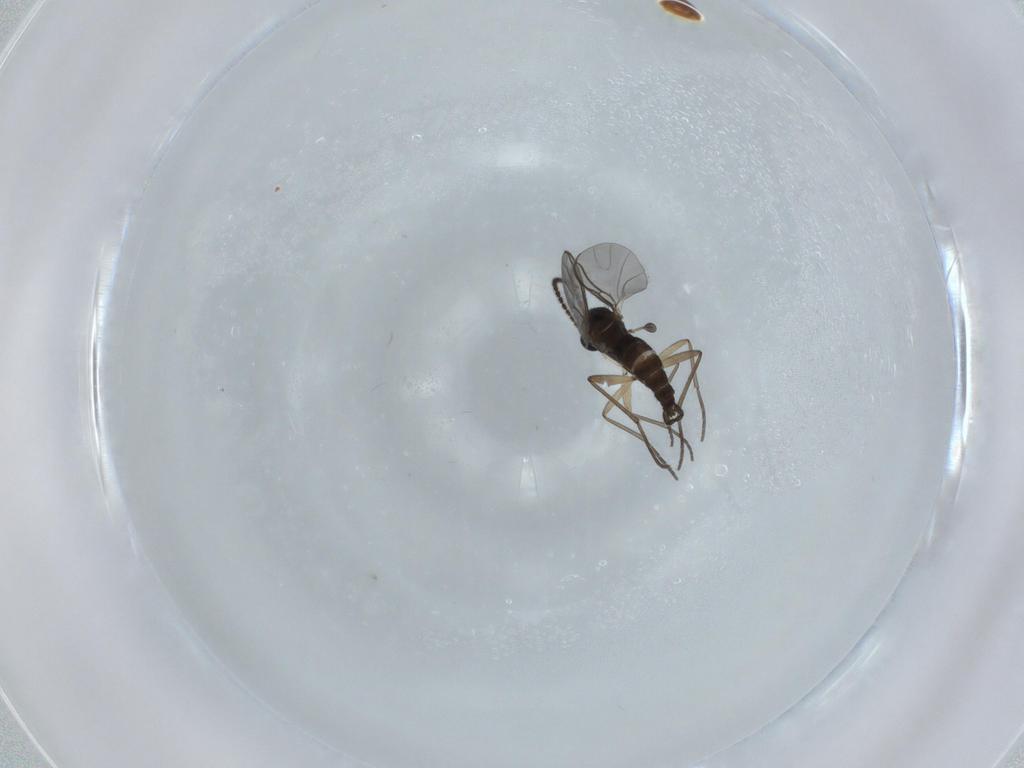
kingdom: Animalia
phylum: Arthropoda
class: Insecta
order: Diptera
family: Sciaridae
